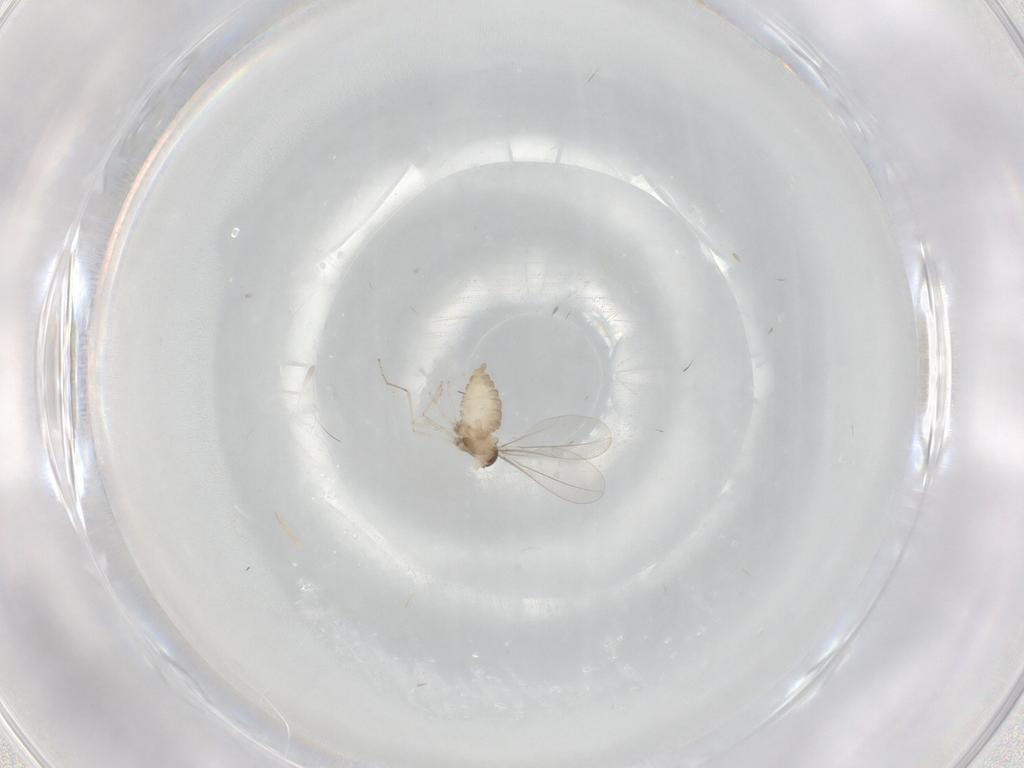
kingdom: Animalia
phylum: Arthropoda
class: Insecta
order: Diptera
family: Cecidomyiidae
